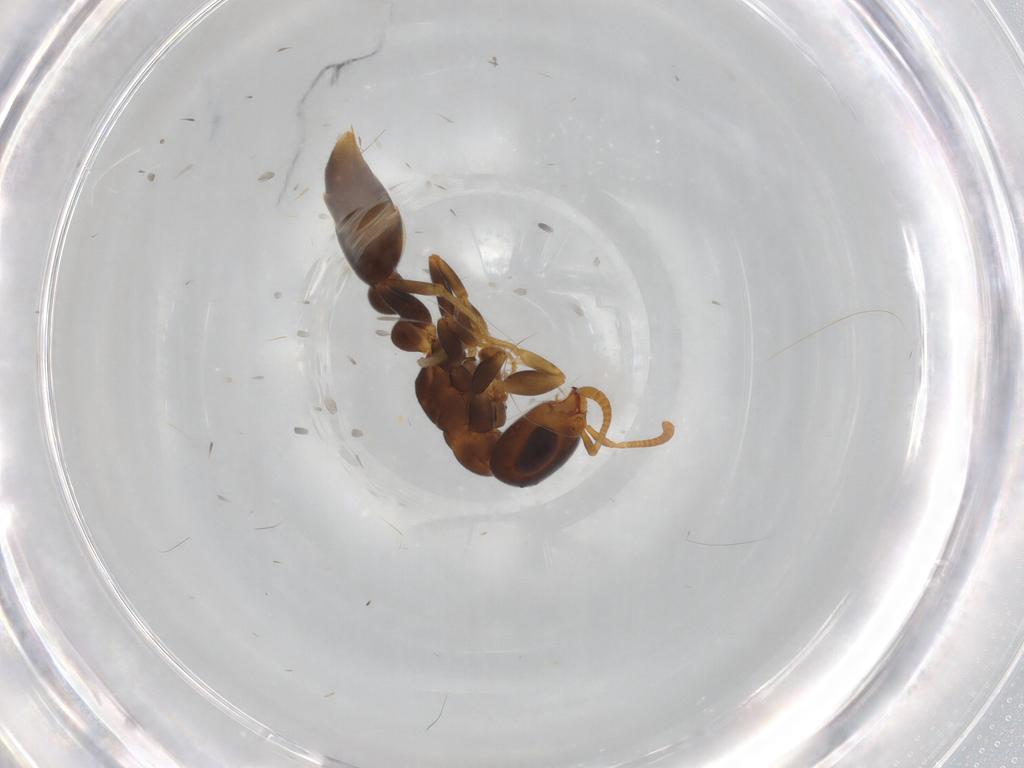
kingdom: Animalia
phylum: Arthropoda
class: Insecta
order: Hymenoptera
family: Formicidae
